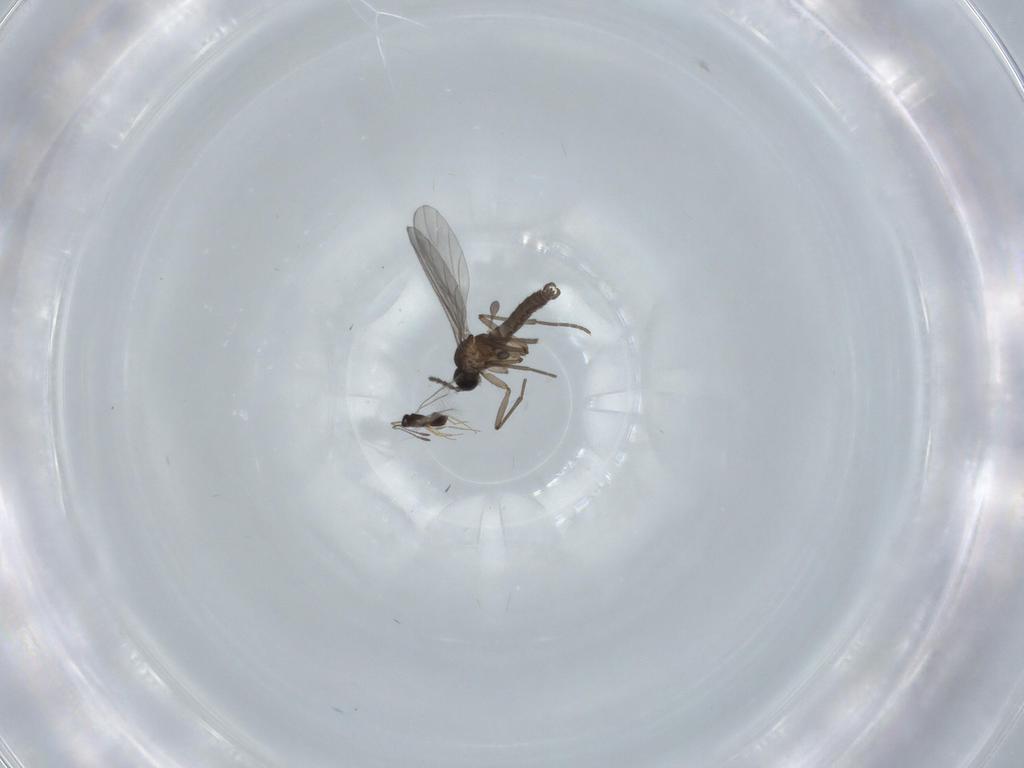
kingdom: Animalia
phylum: Arthropoda
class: Insecta
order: Diptera
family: Sciaridae
